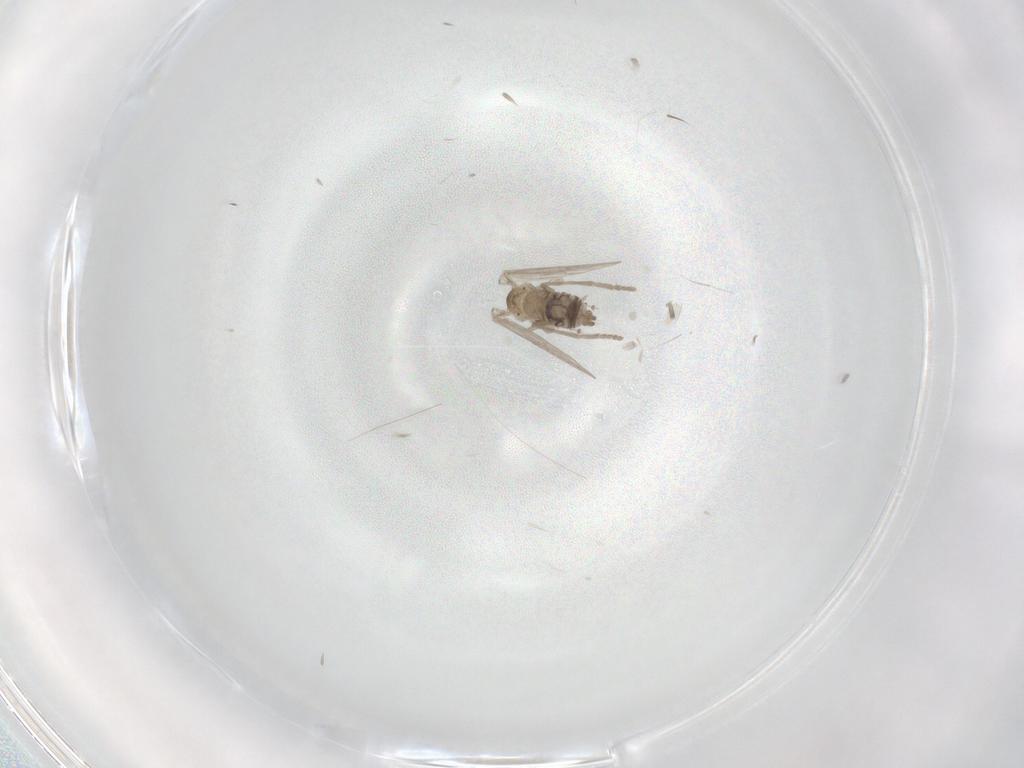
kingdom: Animalia
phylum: Arthropoda
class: Insecta
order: Diptera
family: Psychodidae
